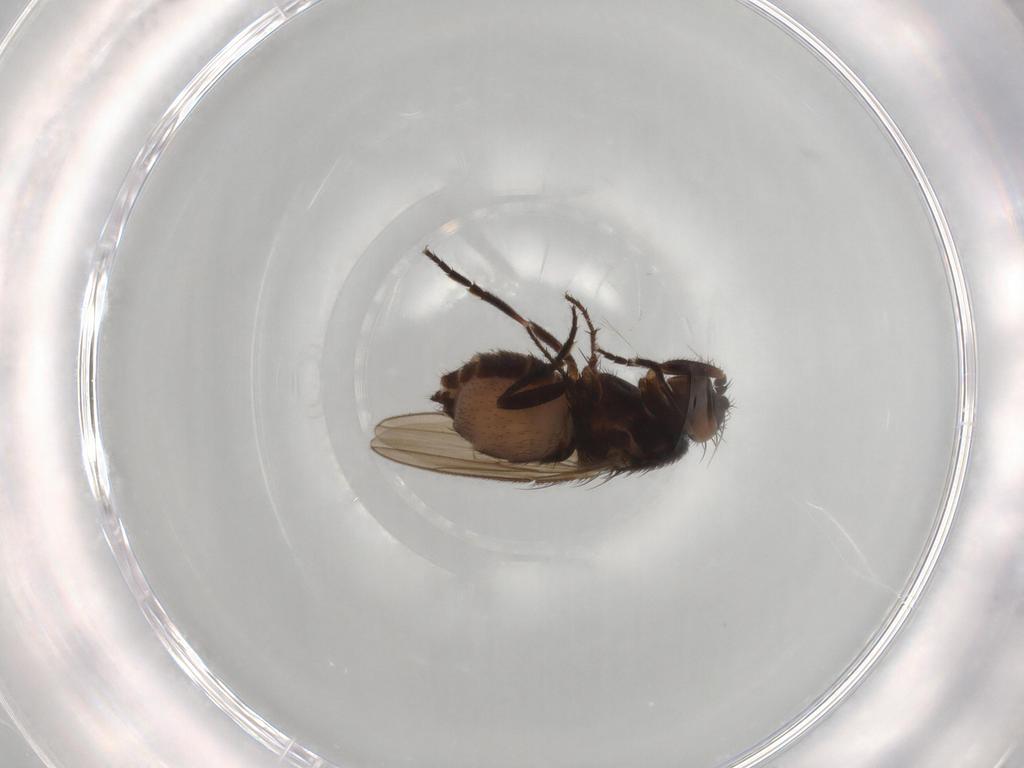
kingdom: Animalia
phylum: Arthropoda
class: Insecta
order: Diptera
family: Sphaeroceridae
